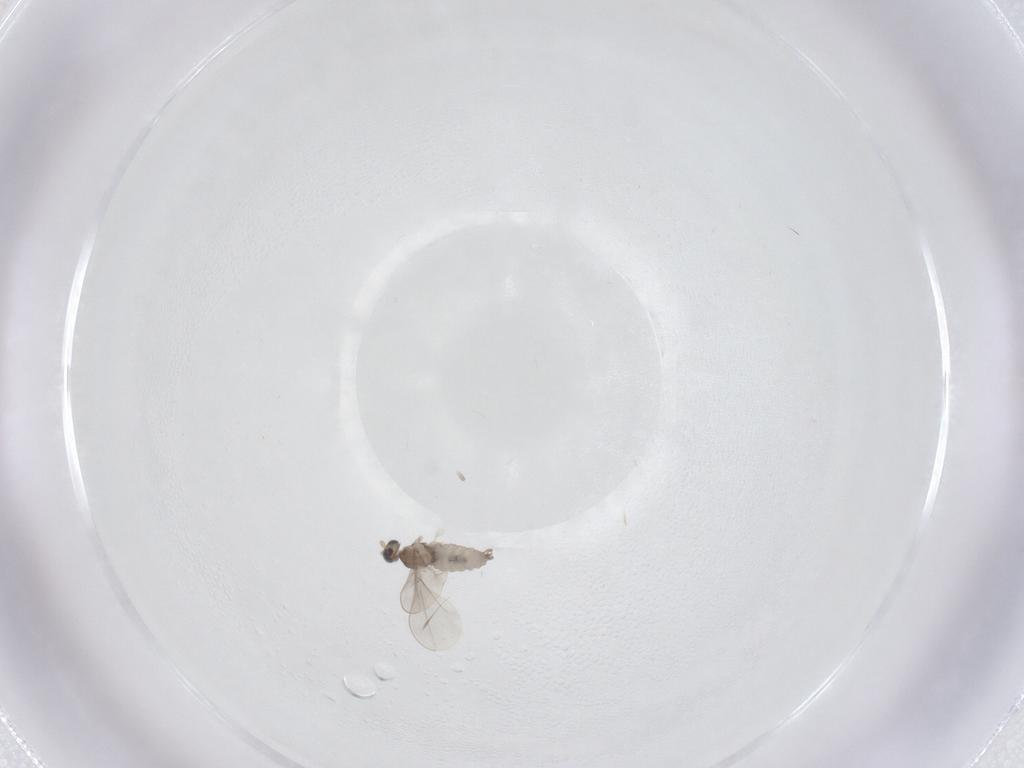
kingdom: Animalia
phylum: Arthropoda
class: Insecta
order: Diptera
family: Cecidomyiidae
